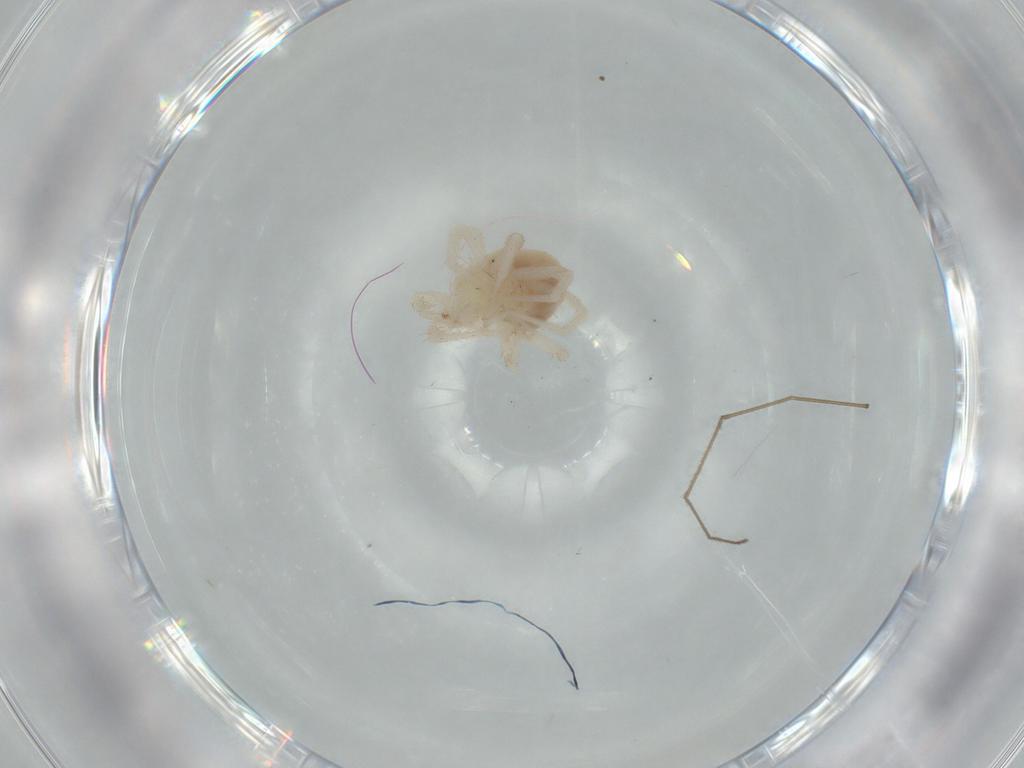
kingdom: Animalia
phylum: Arthropoda
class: Arachnida
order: Trombidiformes
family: Anystidae
